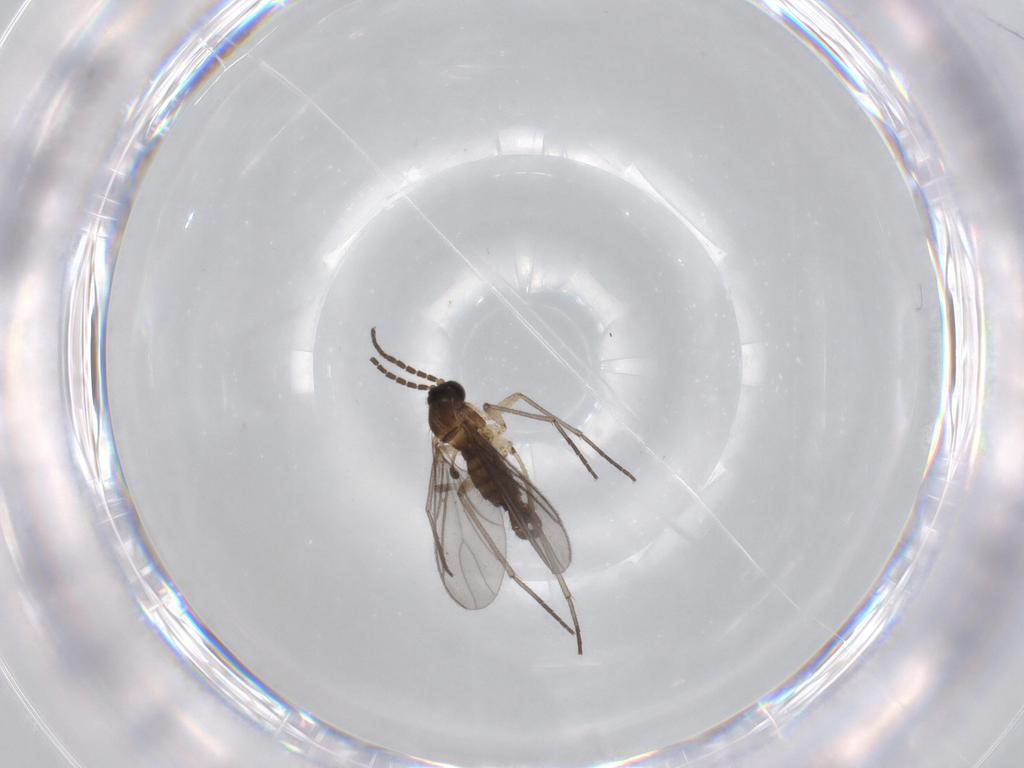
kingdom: Animalia
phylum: Arthropoda
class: Insecta
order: Diptera
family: Sciaridae
